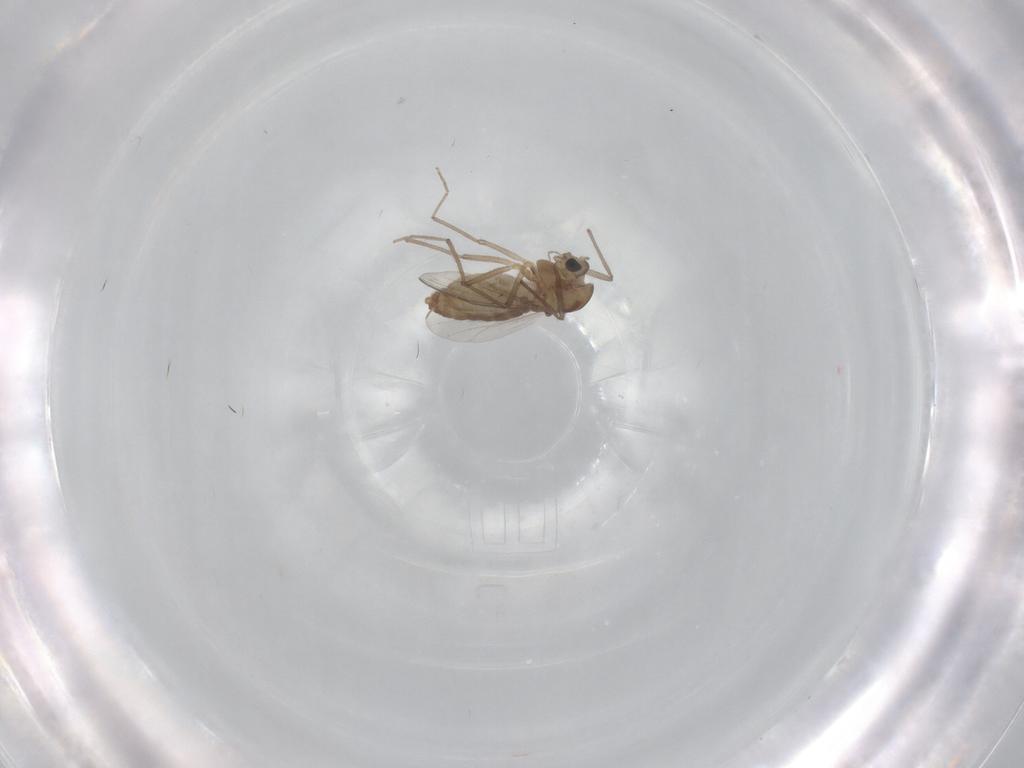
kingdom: Animalia
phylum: Arthropoda
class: Insecta
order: Diptera
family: Chironomidae
